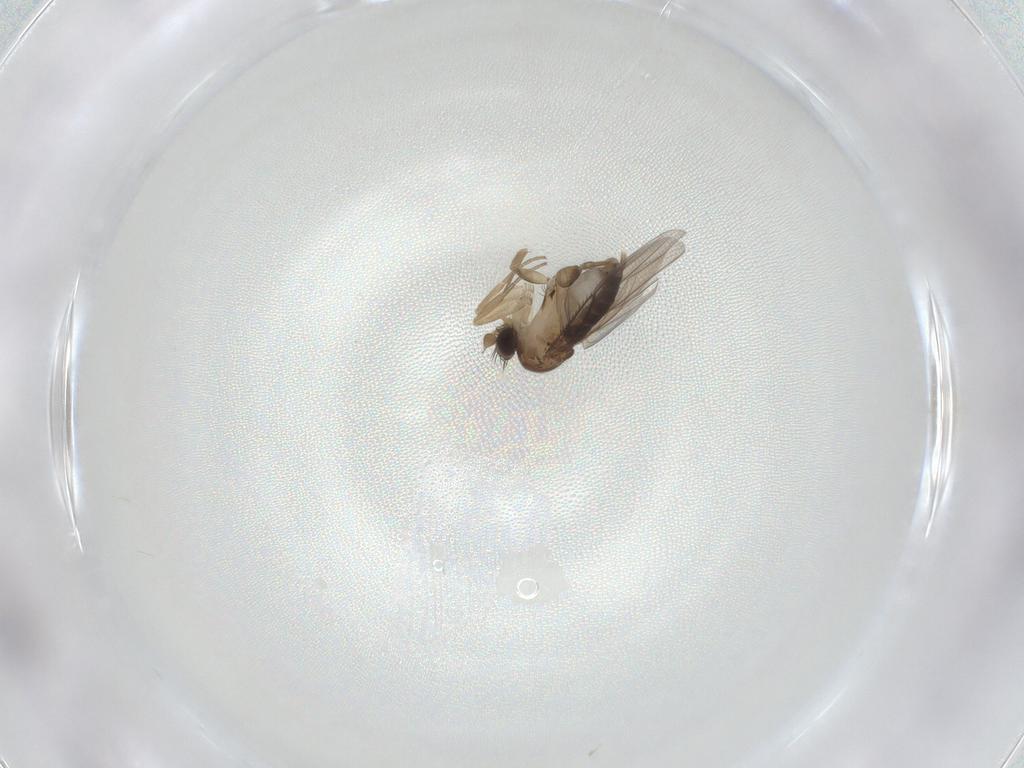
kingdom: Animalia
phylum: Arthropoda
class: Insecta
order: Diptera
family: Phoridae
